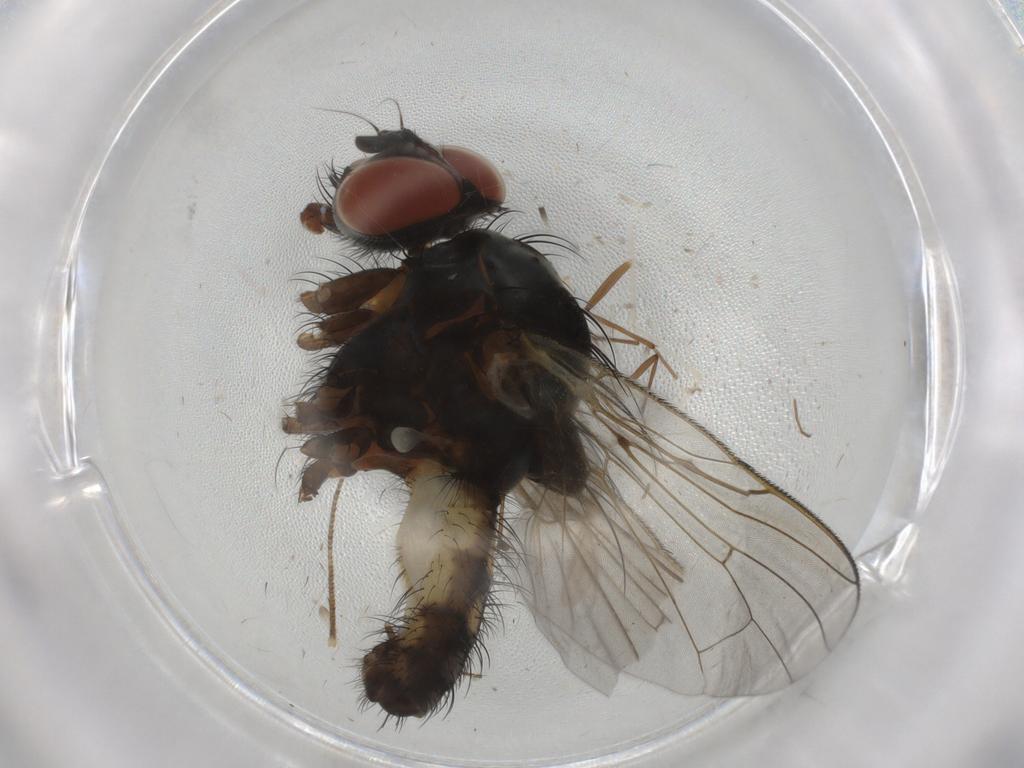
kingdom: Animalia
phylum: Arthropoda
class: Insecta
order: Diptera
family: Anthomyiidae
